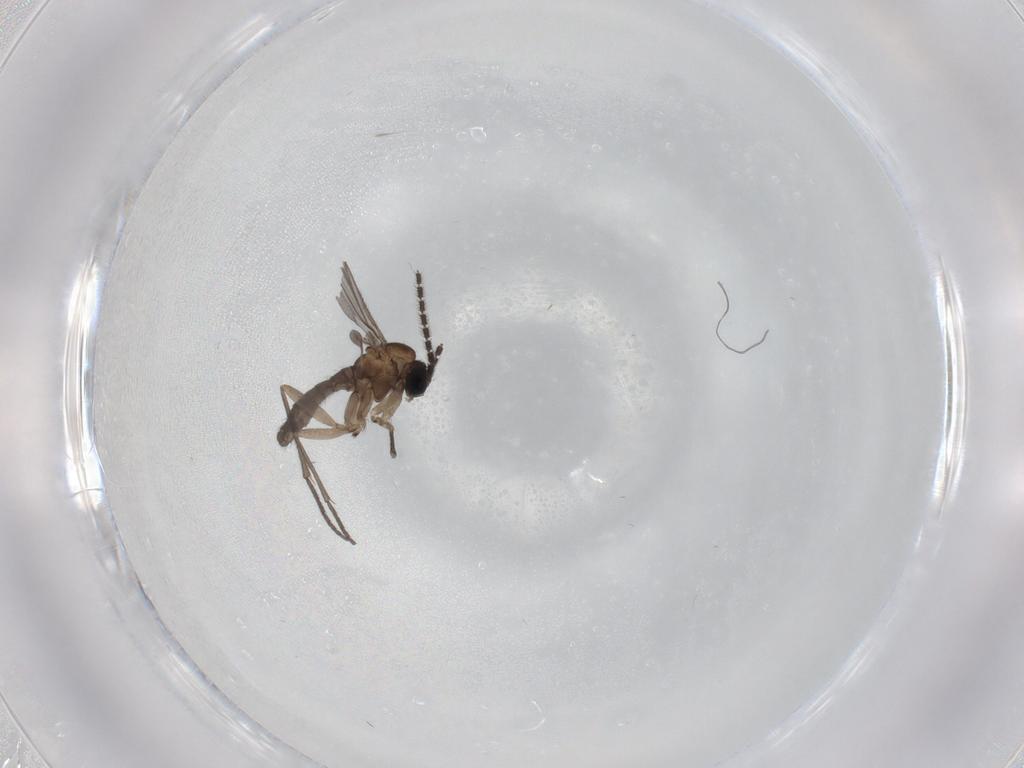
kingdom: Animalia
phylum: Arthropoda
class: Insecta
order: Diptera
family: Sciaridae
